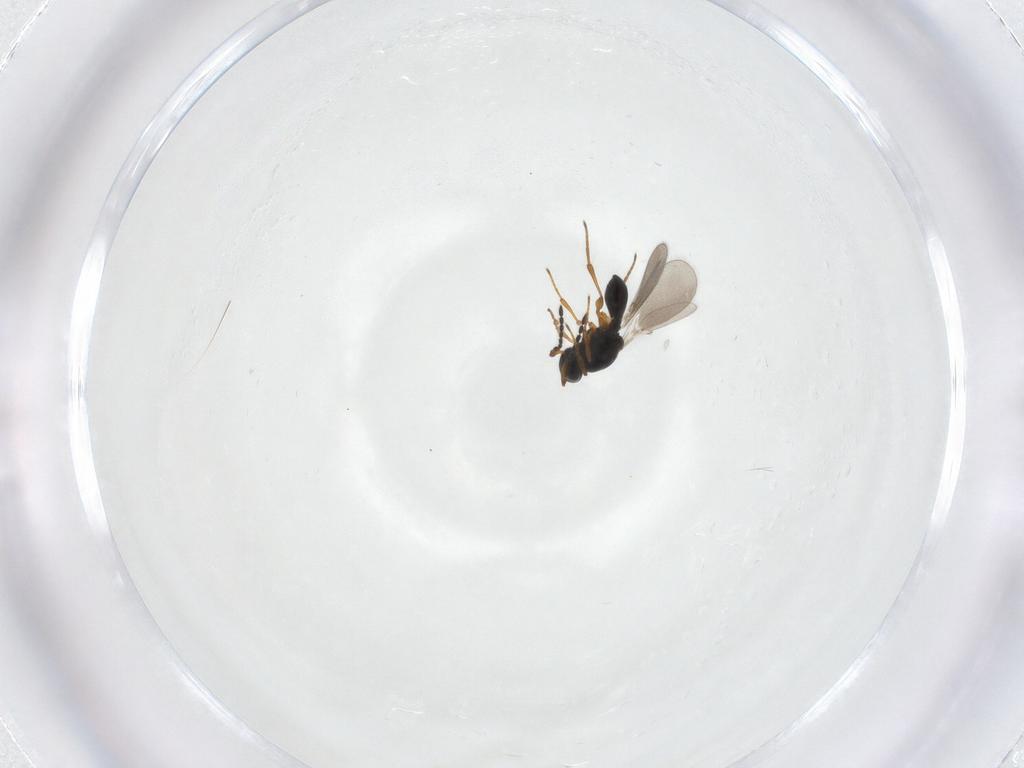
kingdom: Animalia
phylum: Arthropoda
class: Insecta
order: Hymenoptera
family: Platygastridae
